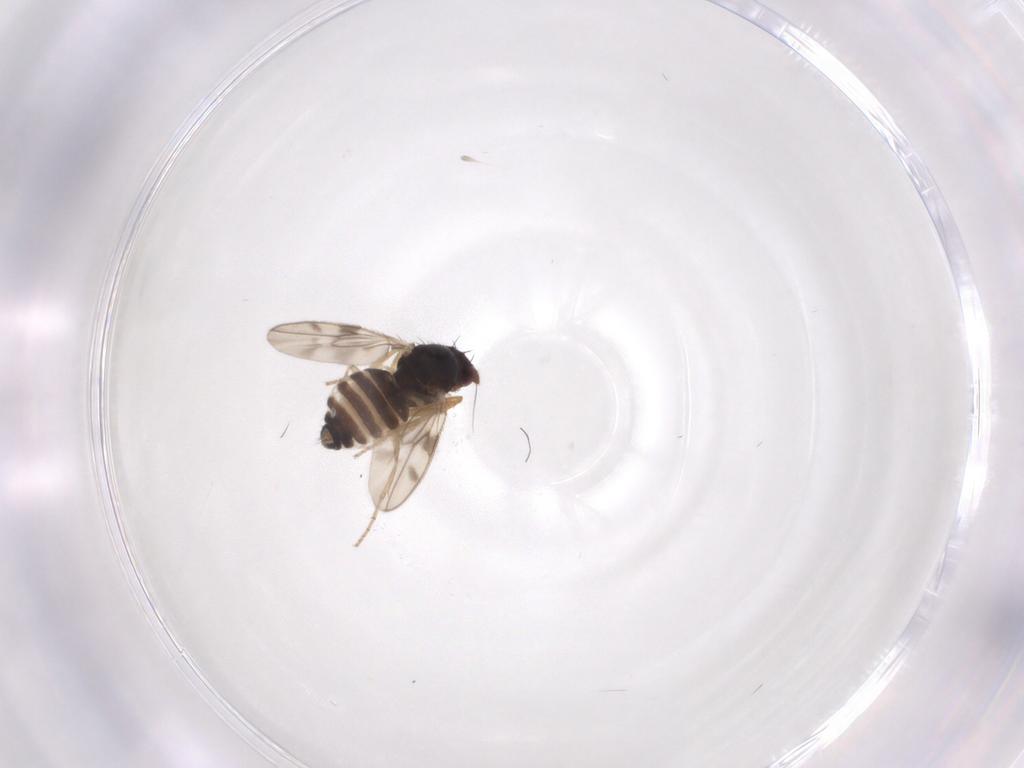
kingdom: Animalia
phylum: Arthropoda
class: Insecta
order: Diptera
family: Sphaeroceridae
